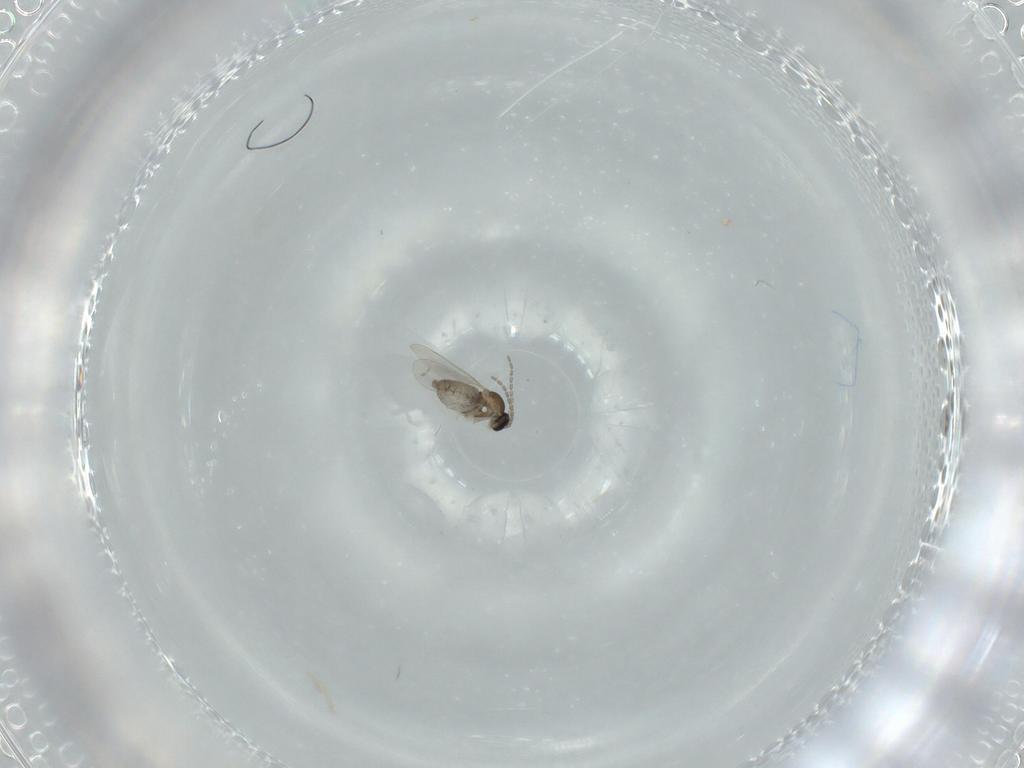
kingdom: Animalia
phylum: Arthropoda
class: Insecta
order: Diptera
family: Cecidomyiidae
